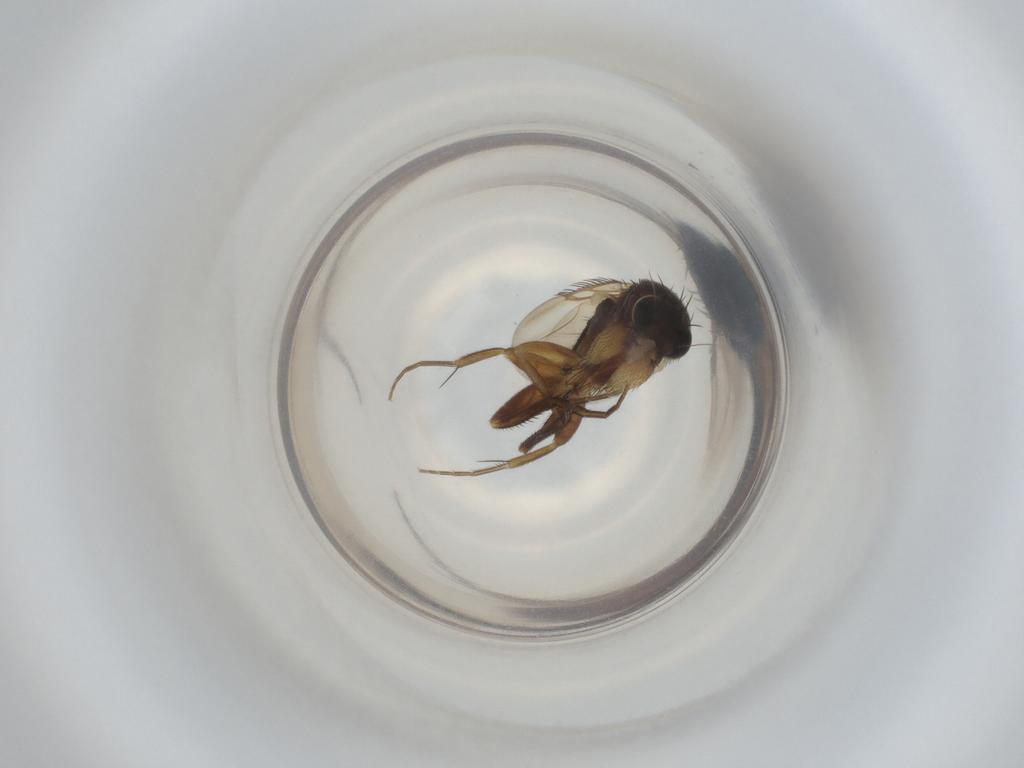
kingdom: Animalia
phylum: Arthropoda
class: Insecta
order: Diptera
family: Phoridae
